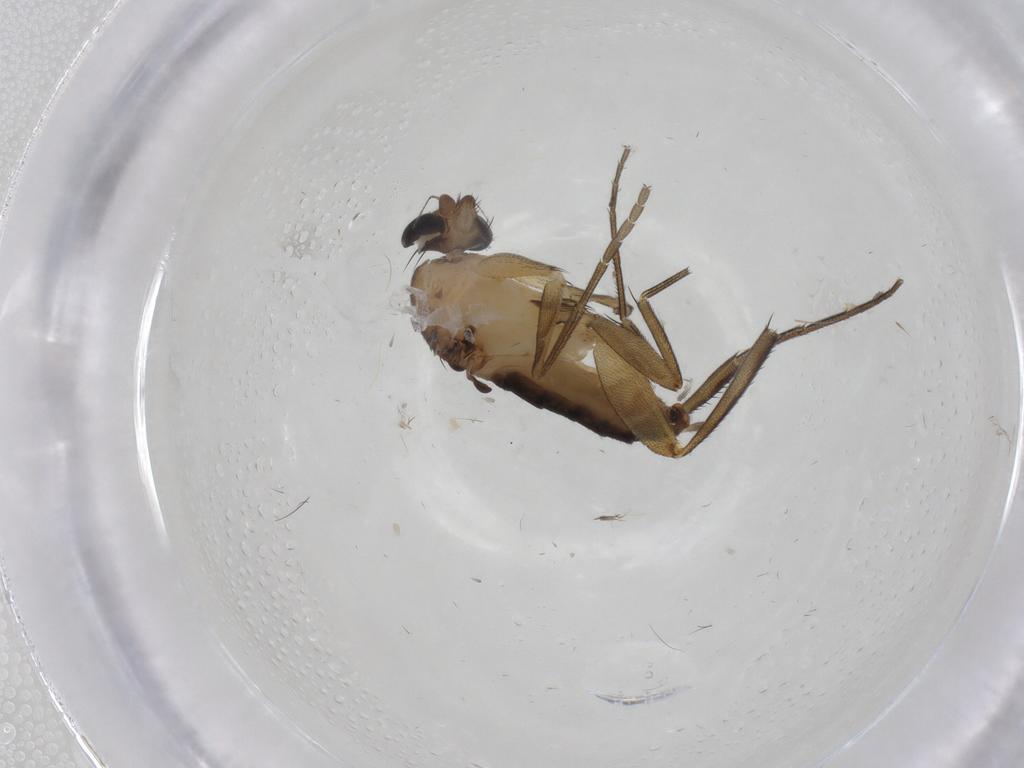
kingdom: Animalia
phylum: Arthropoda
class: Insecta
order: Diptera
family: Phoridae
